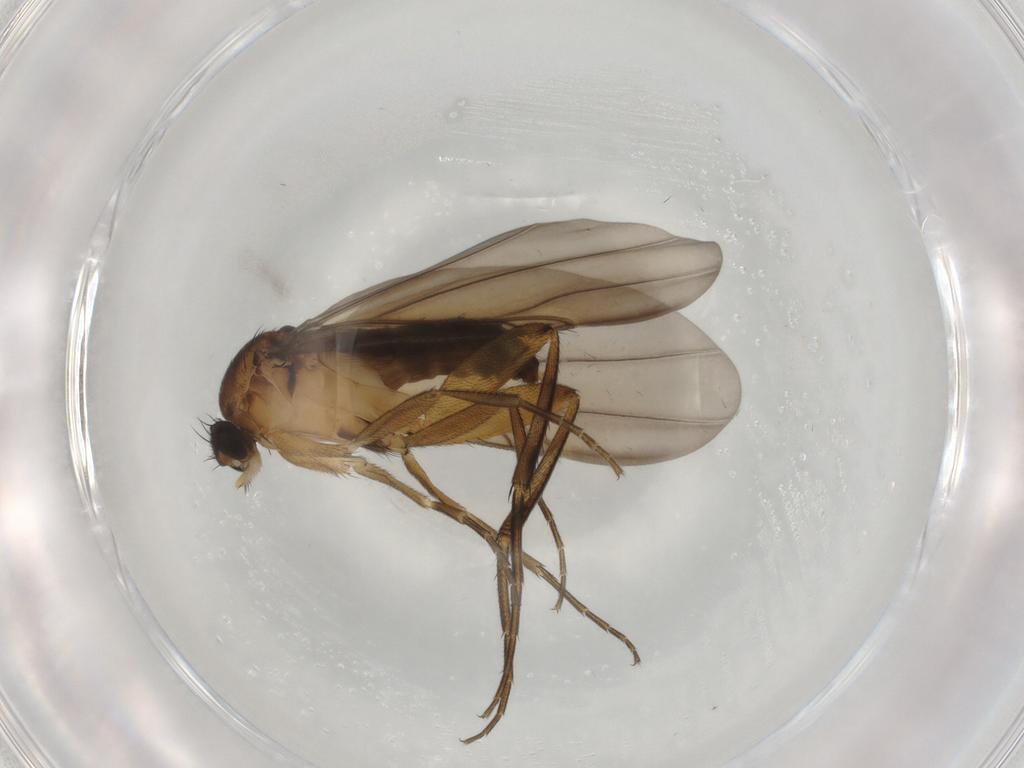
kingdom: Animalia
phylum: Arthropoda
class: Insecta
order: Diptera
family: Phoridae
